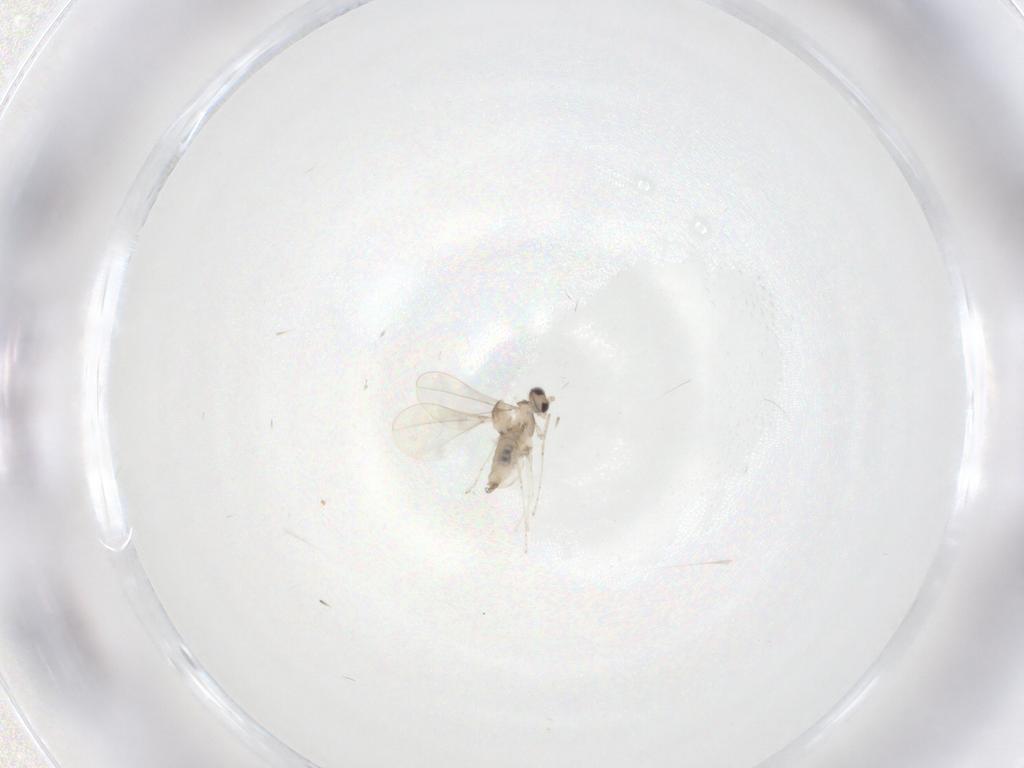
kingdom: Animalia
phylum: Arthropoda
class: Insecta
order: Diptera
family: Cecidomyiidae
